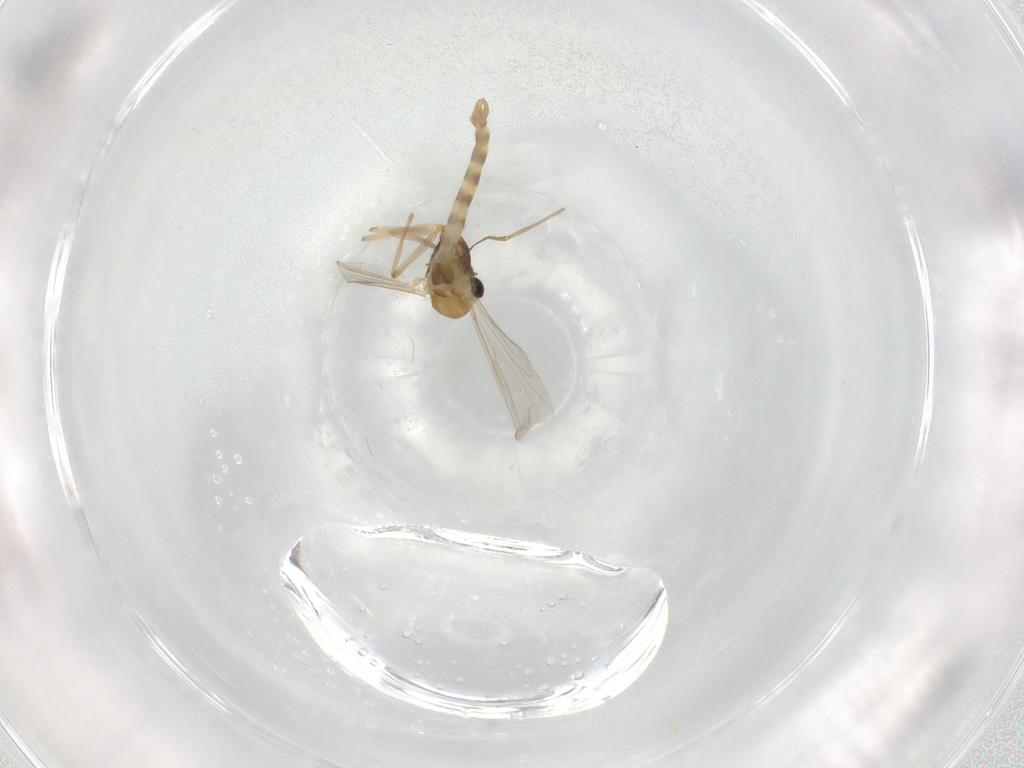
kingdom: Animalia
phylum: Arthropoda
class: Insecta
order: Diptera
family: Chironomidae
